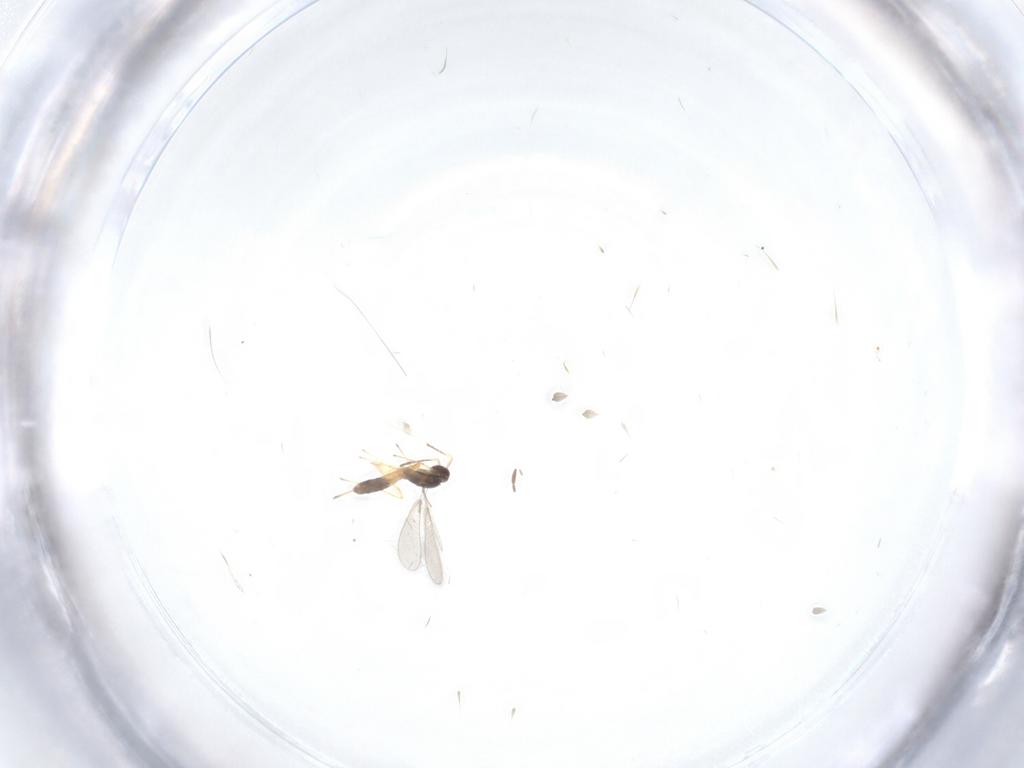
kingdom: Animalia
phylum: Arthropoda
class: Insecta
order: Hymenoptera
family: Mymaridae
